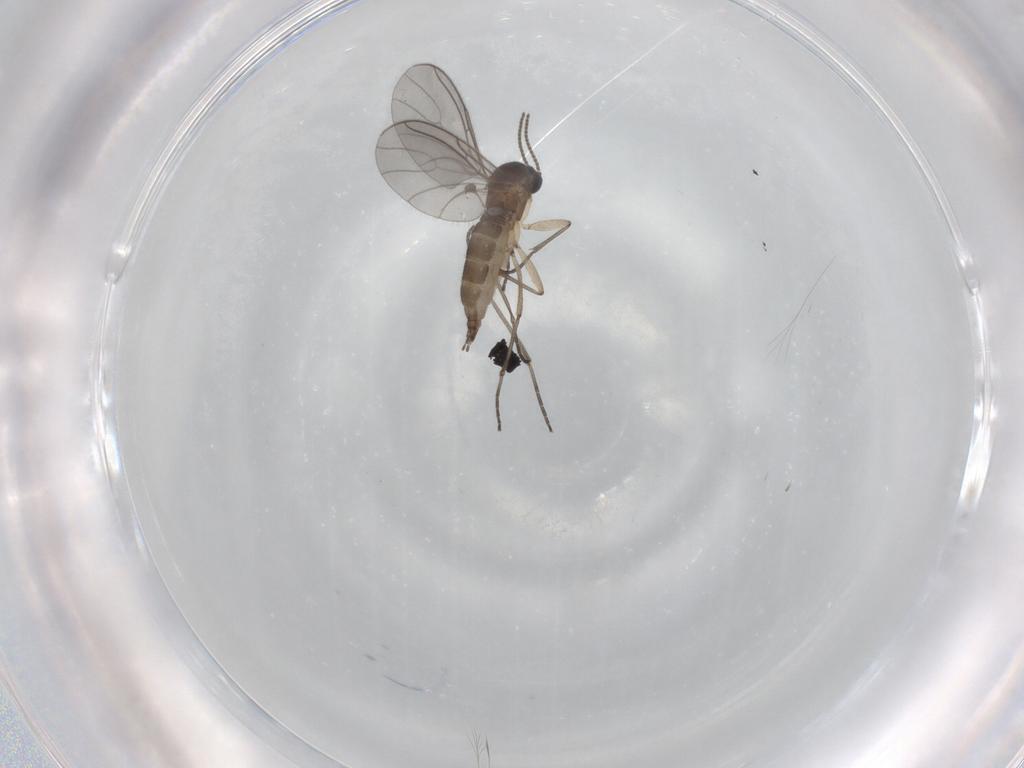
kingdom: Animalia
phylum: Arthropoda
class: Insecta
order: Diptera
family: Sciaridae
